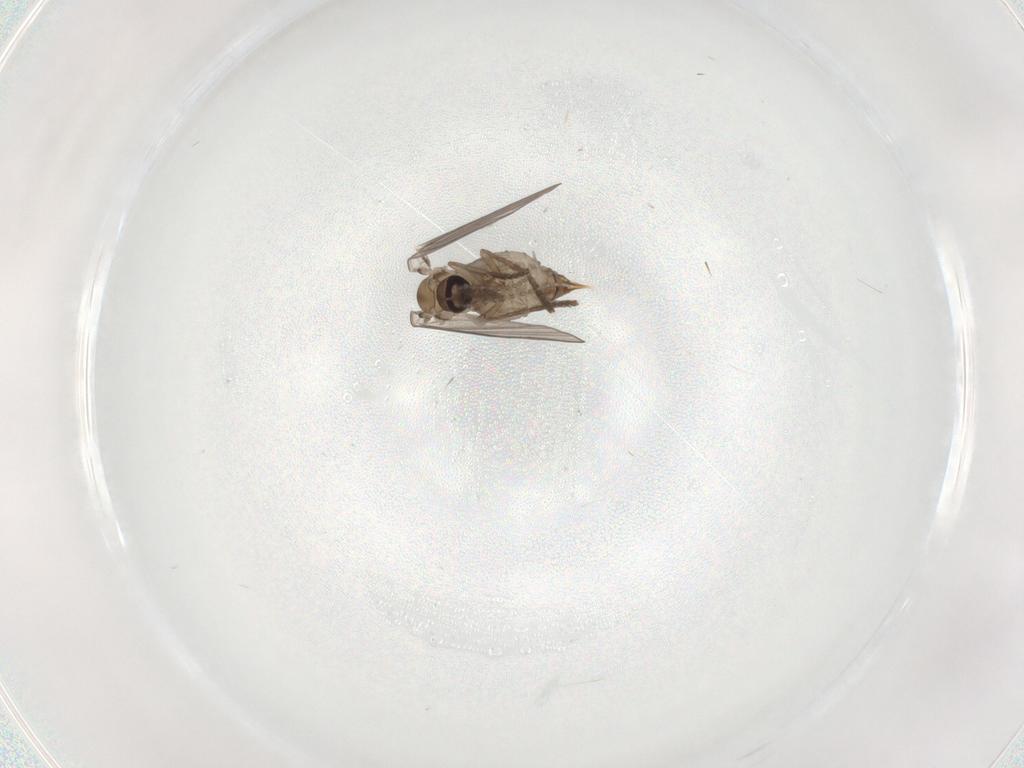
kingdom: Animalia
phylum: Arthropoda
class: Insecta
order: Diptera
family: Psychodidae
